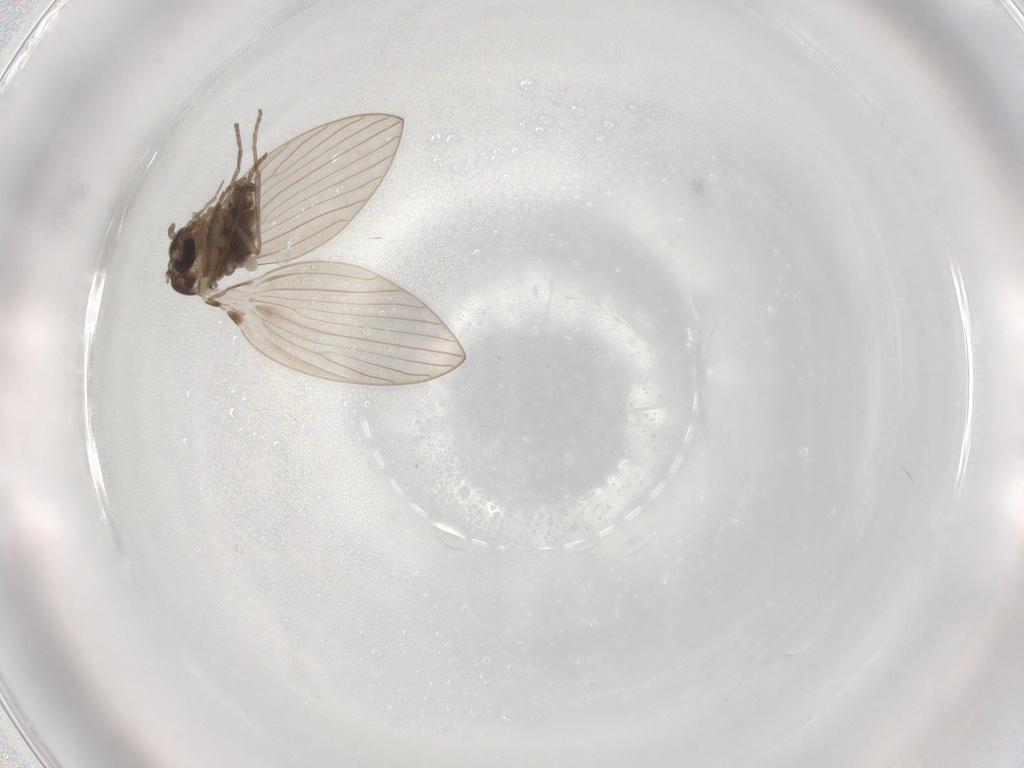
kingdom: Animalia
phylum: Arthropoda
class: Insecta
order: Diptera
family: Psychodidae
